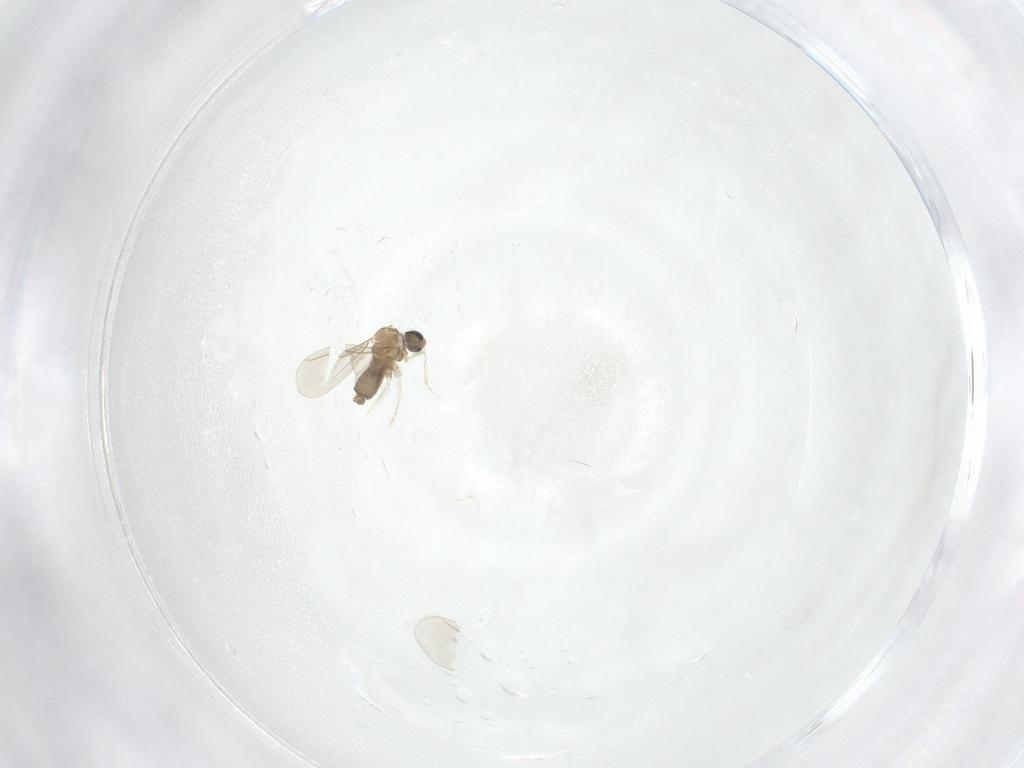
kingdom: Animalia
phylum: Arthropoda
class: Insecta
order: Diptera
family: Cecidomyiidae
